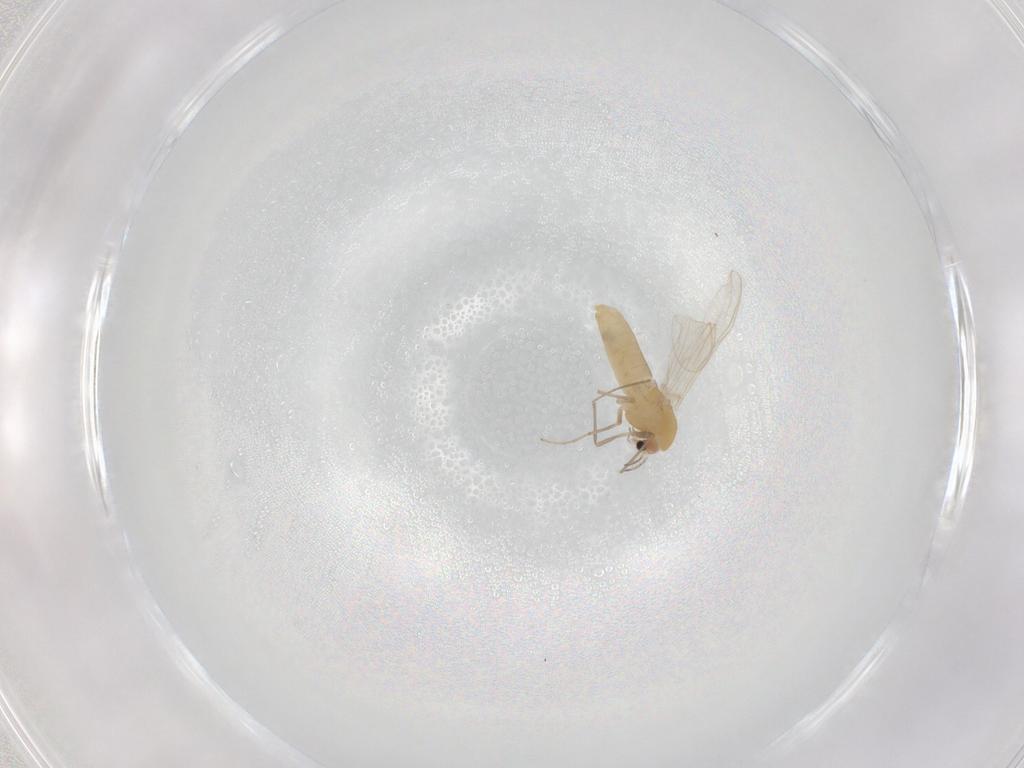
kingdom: Animalia
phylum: Arthropoda
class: Insecta
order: Diptera
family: Chironomidae
